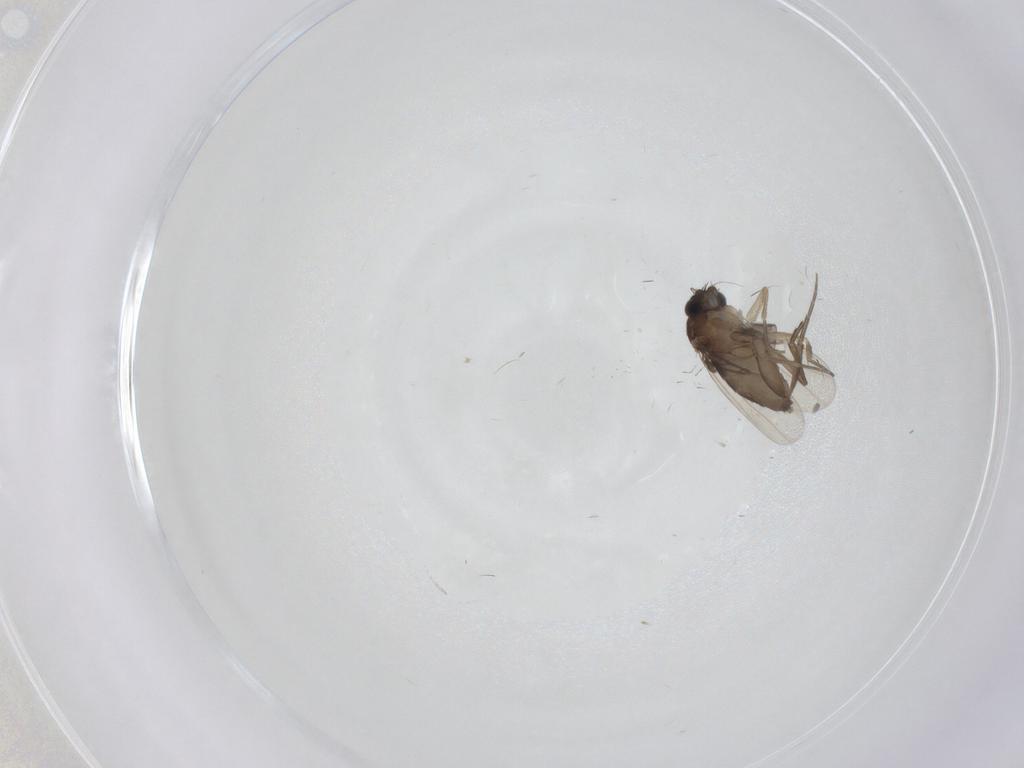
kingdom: Animalia
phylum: Arthropoda
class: Insecta
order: Diptera
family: Phoridae
